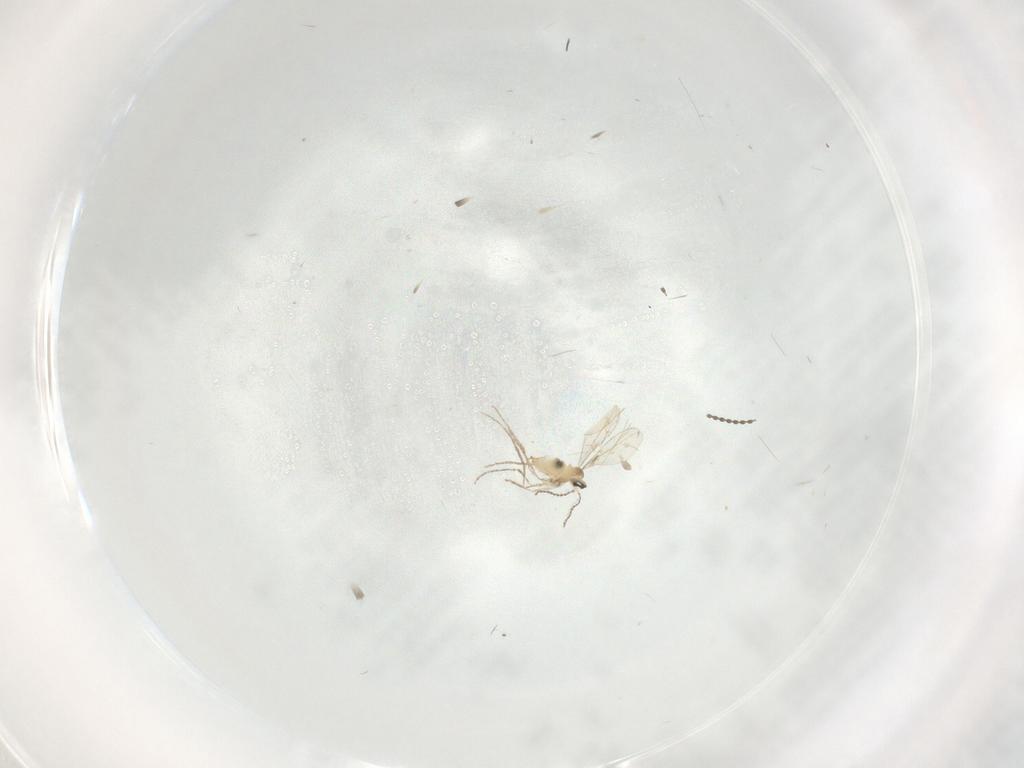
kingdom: Animalia
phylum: Arthropoda
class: Insecta
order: Diptera
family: Cecidomyiidae
